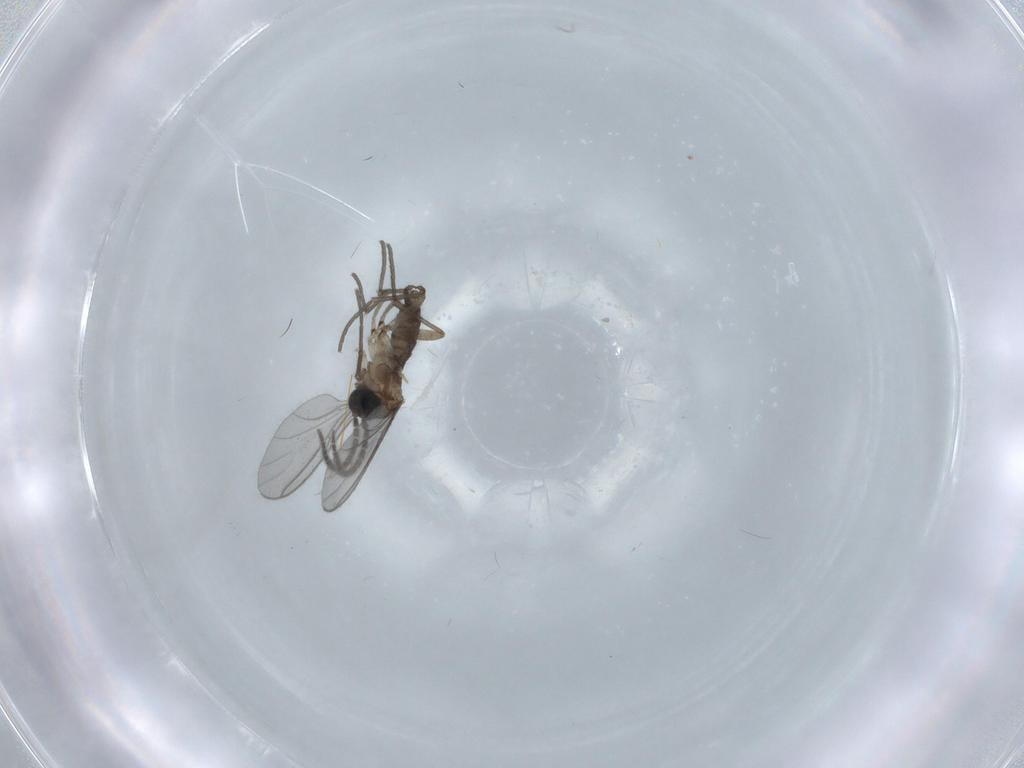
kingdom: Animalia
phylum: Arthropoda
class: Insecta
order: Diptera
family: Sciaridae
